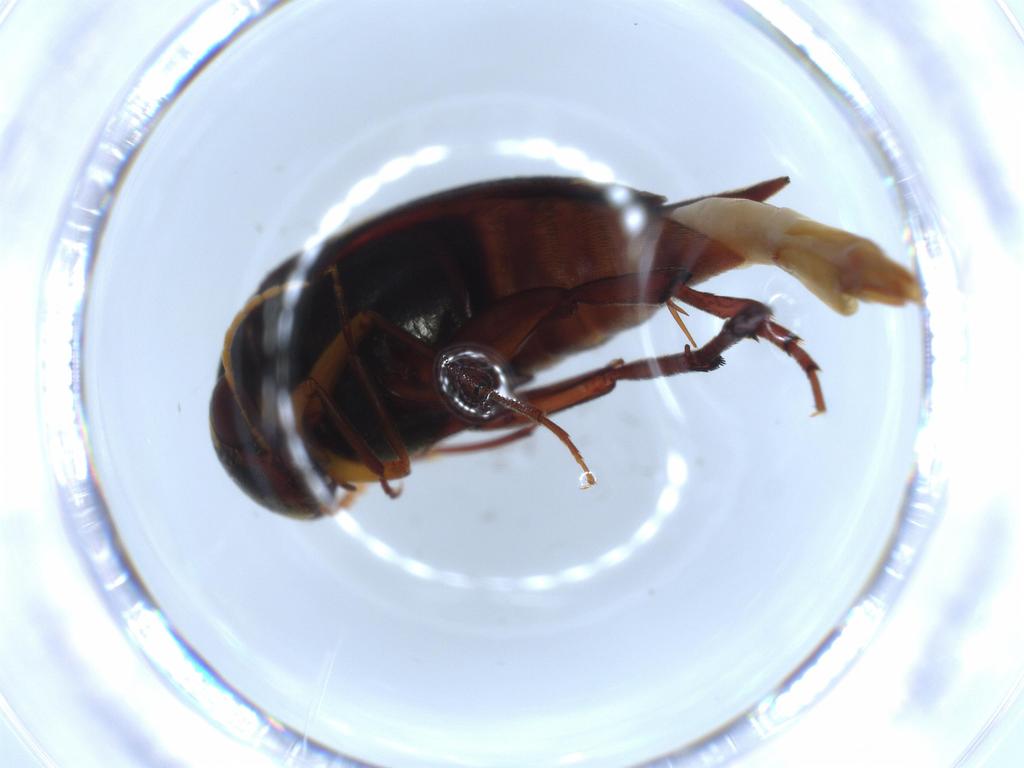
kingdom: Animalia
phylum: Arthropoda
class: Insecta
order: Coleoptera
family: Mordellidae
